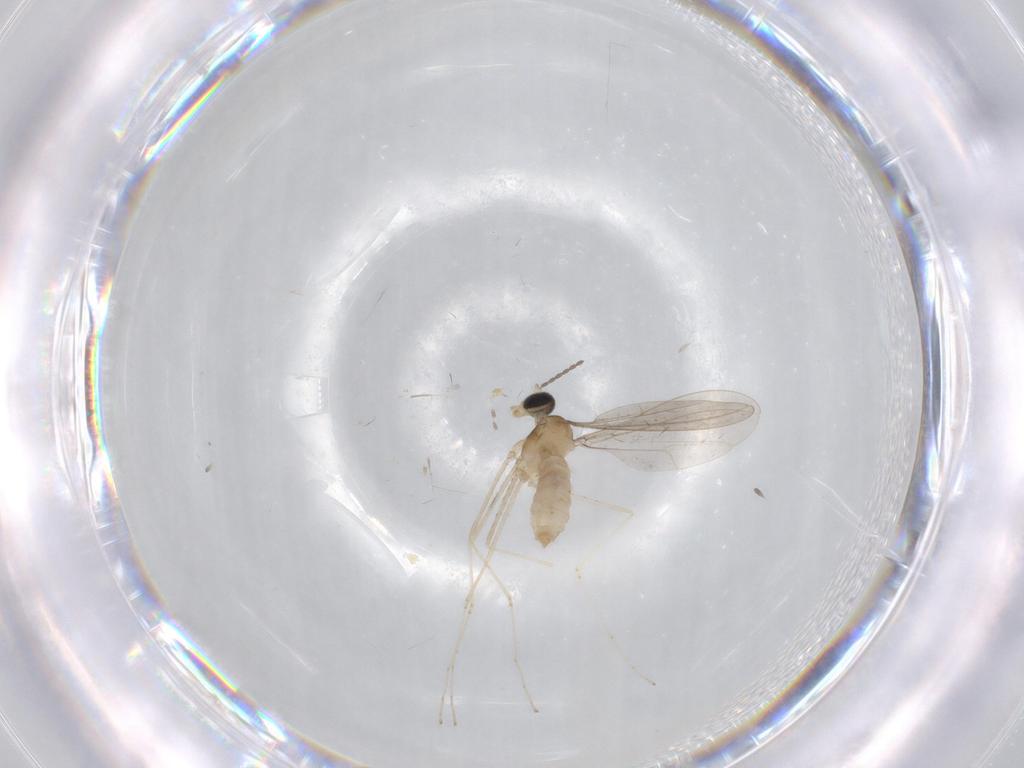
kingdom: Animalia
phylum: Arthropoda
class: Insecta
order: Diptera
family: Cecidomyiidae
